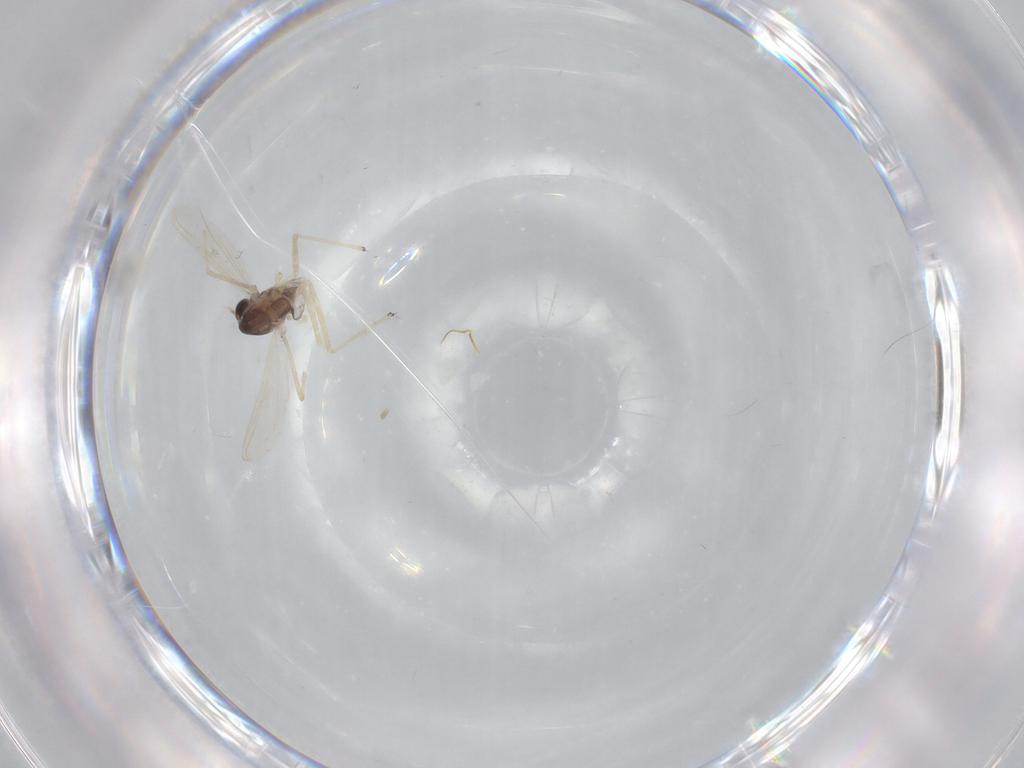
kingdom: Animalia
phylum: Arthropoda
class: Insecta
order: Diptera
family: Chironomidae
